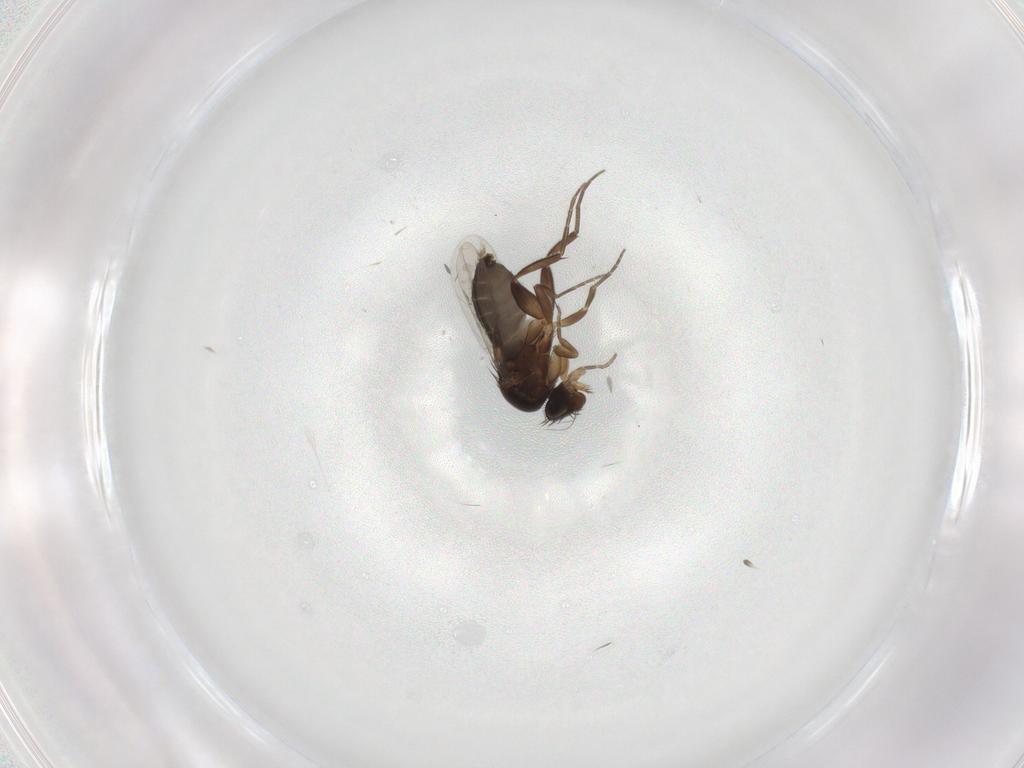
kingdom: Animalia
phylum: Arthropoda
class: Insecta
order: Diptera
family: Phoridae
